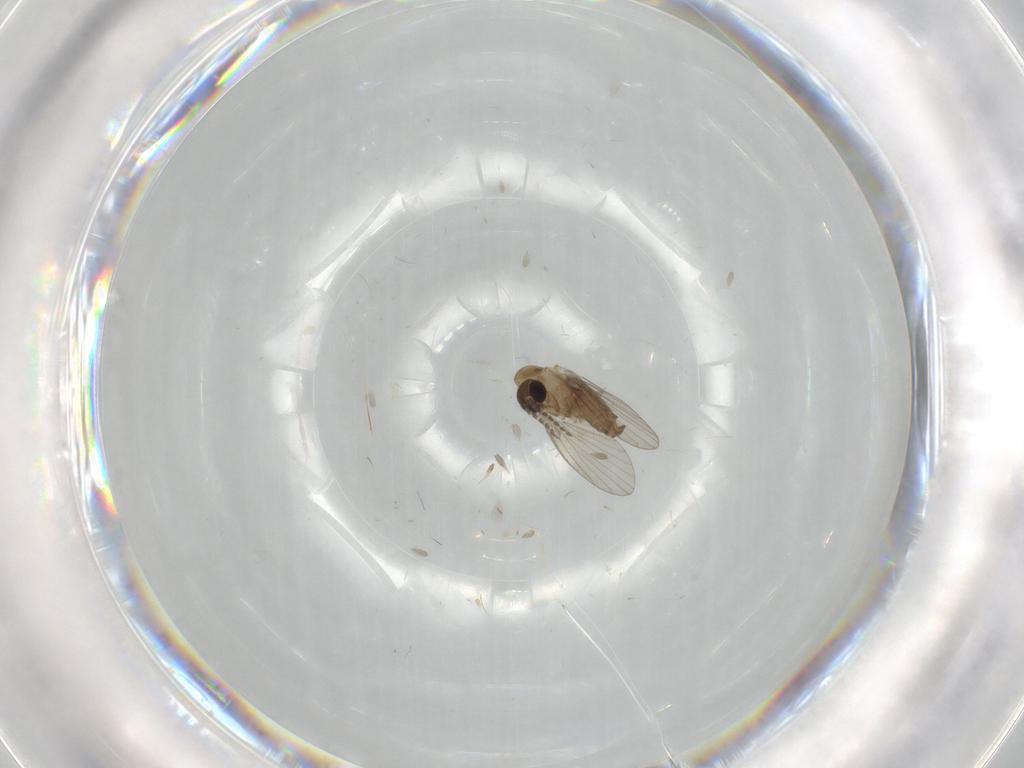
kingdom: Animalia
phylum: Arthropoda
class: Insecta
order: Diptera
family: Psychodidae
